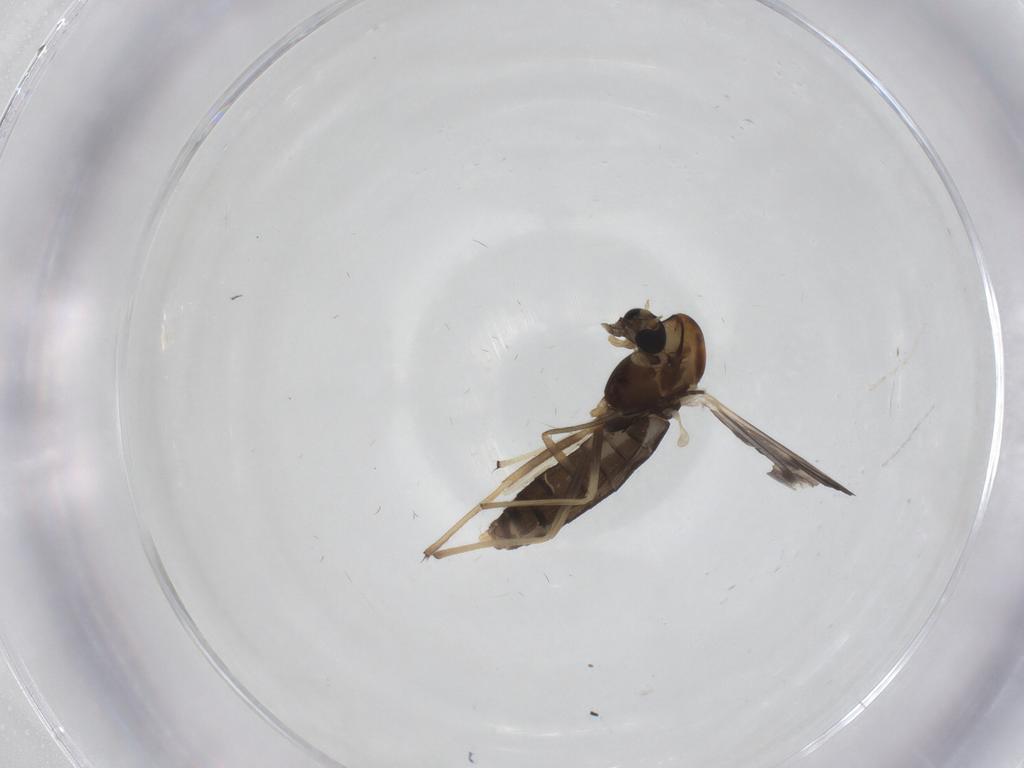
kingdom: Animalia
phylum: Arthropoda
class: Insecta
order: Diptera
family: Chironomidae
